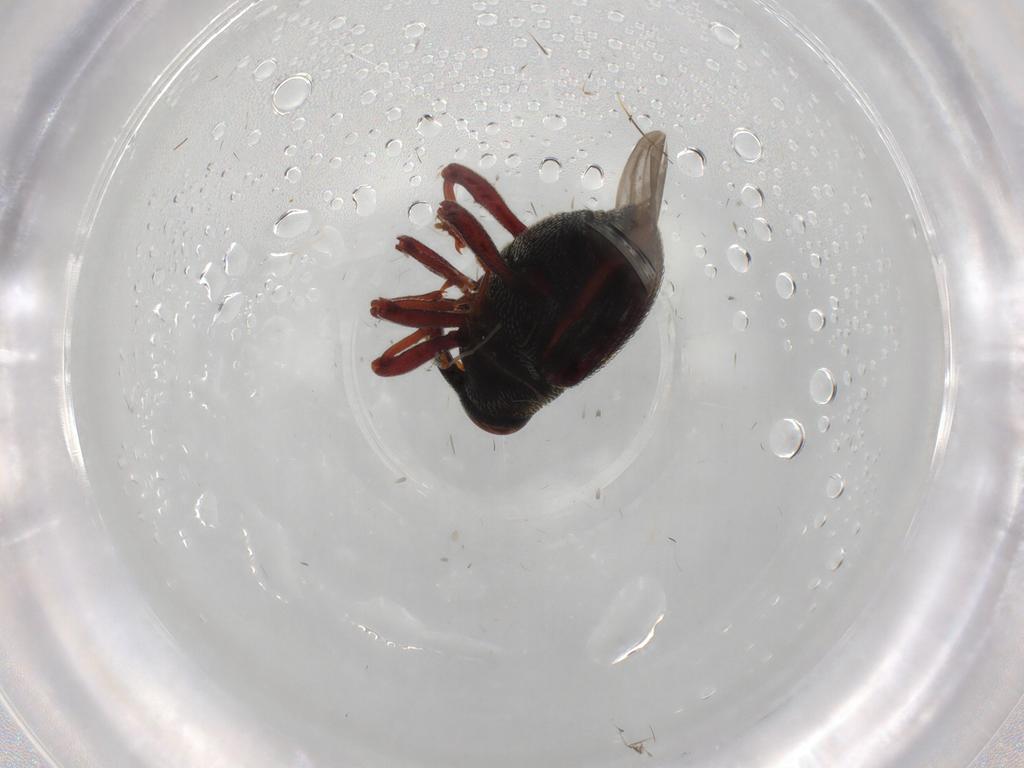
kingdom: Animalia
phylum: Arthropoda
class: Insecta
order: Coleoptera
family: Curculionidae
